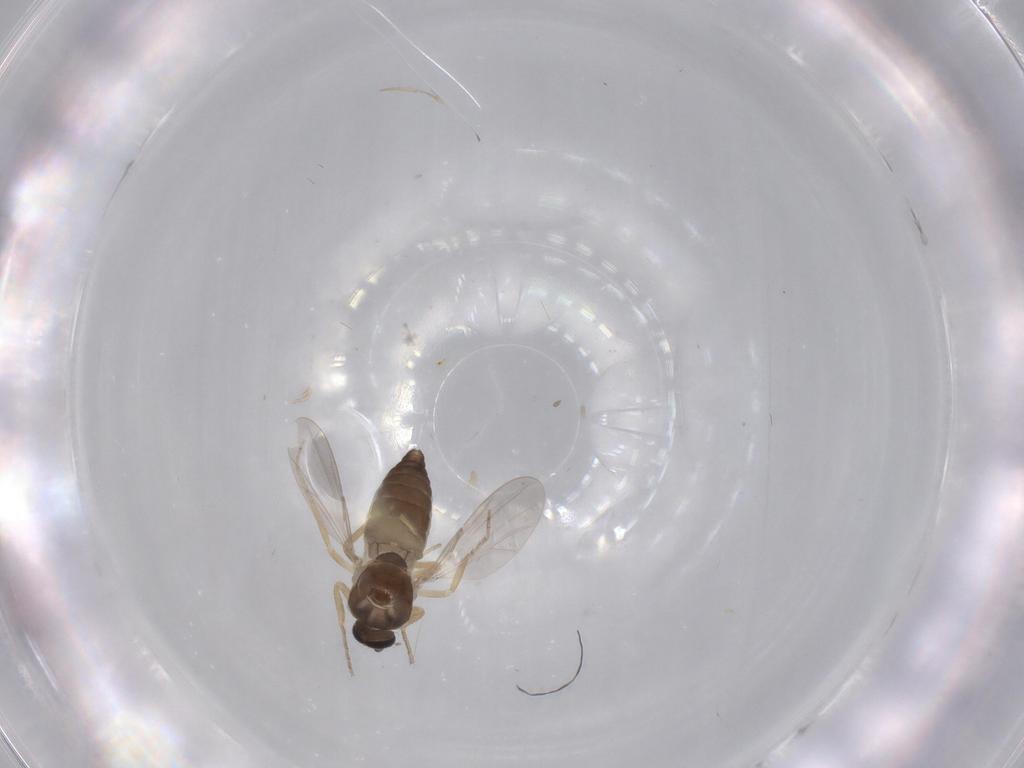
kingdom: Animalia
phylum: Arthropoda
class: Insecta
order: Diptera
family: Ceratopogonidae
